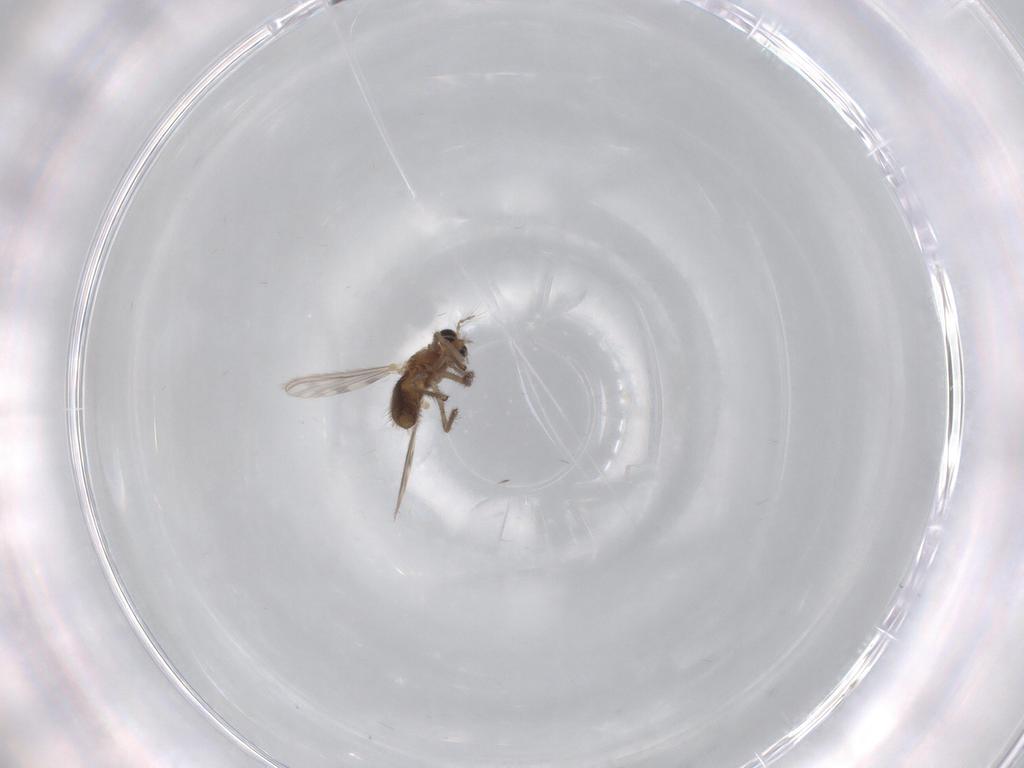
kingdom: Animalia
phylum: Arthropoda
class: Insecta
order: Diptera
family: Chironomidae
